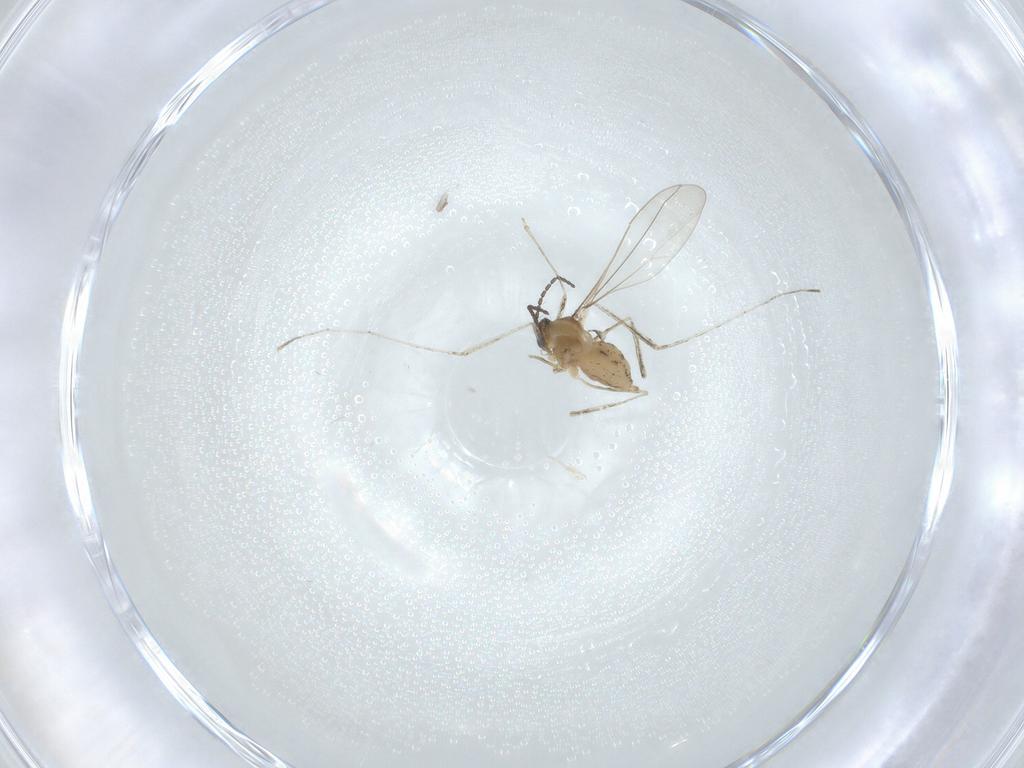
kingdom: Animalia
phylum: Arthropoda
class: Insecta
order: Diptera
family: Cecidomyiidae
